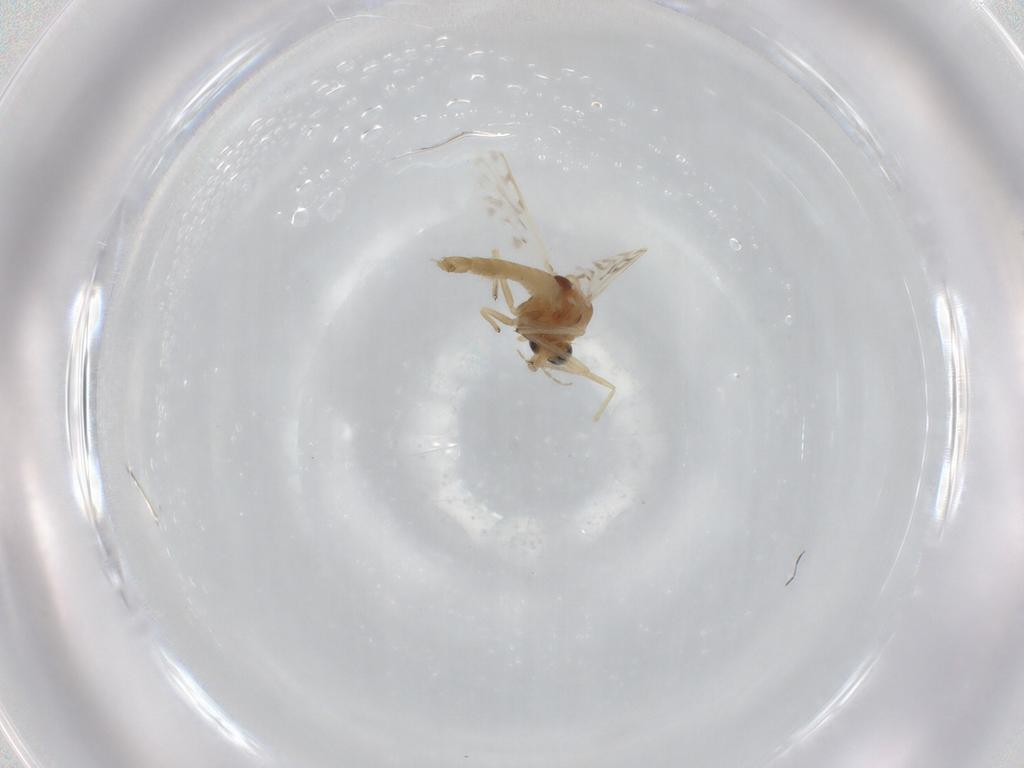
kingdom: Animalia
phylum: Arthropoda
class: Insecta
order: Diptera
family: Chironomidae
